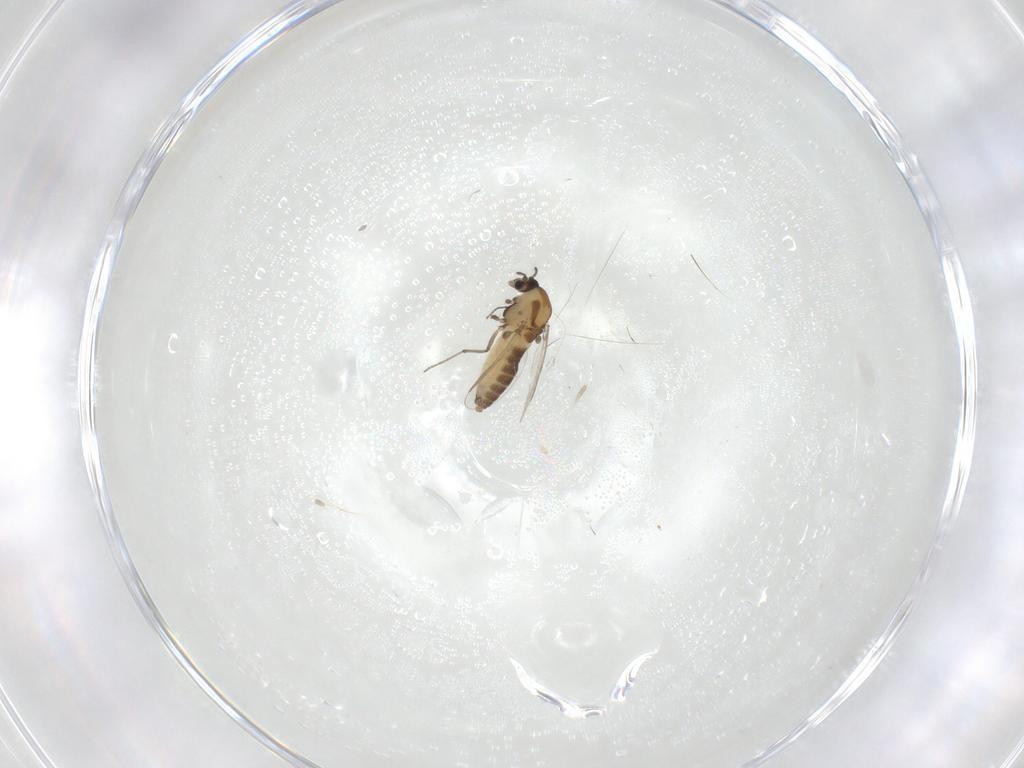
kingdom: Animalia
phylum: Arthropoda
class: Insecta
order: Diptera
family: Chironomidae
